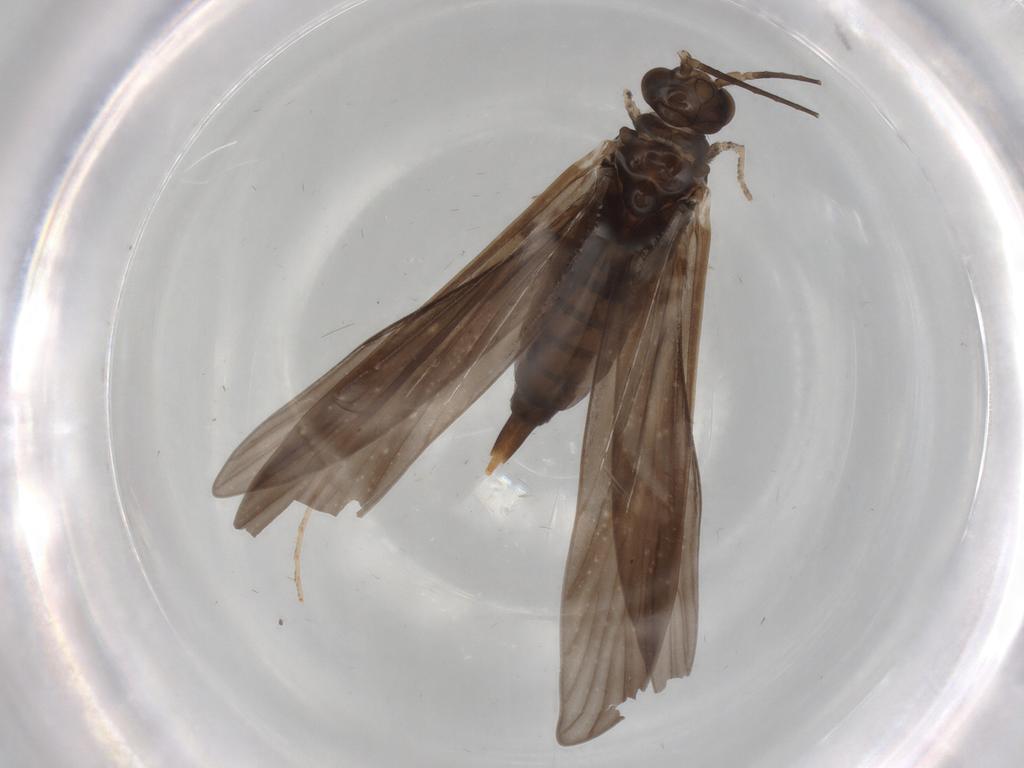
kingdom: Animalia
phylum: Arthropoda
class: Insecta
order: Trichoptera
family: Xiphocentronidae
